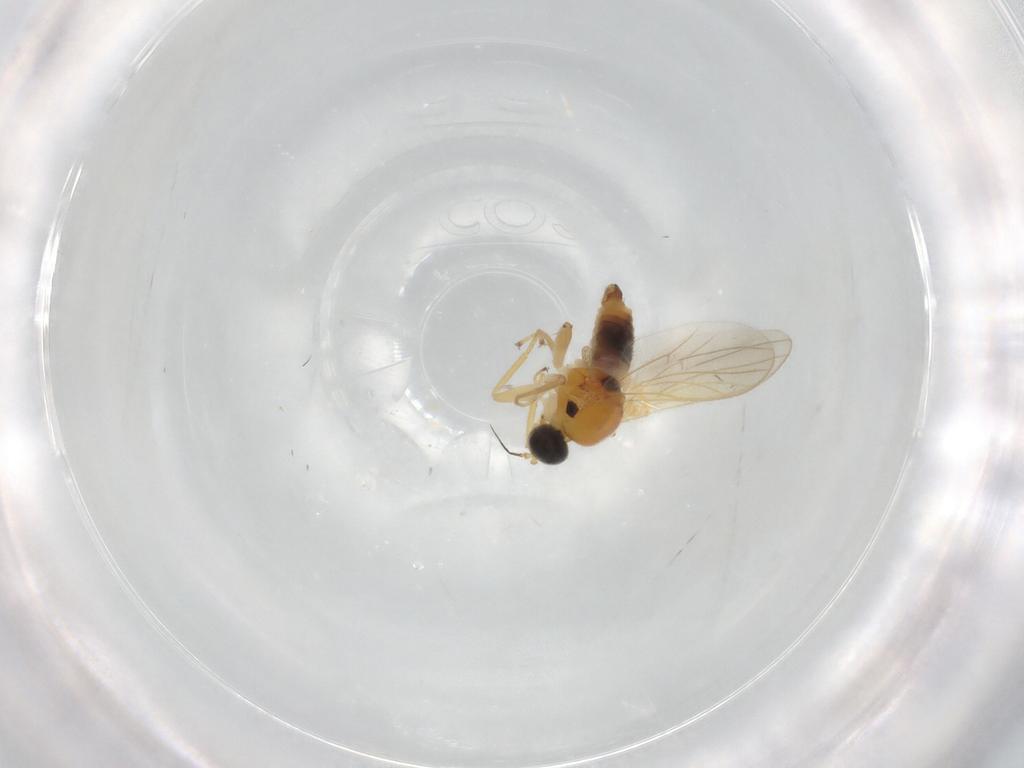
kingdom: Animalia
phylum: Arthropoda
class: Insecta
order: Diptera
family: Hybotidae
